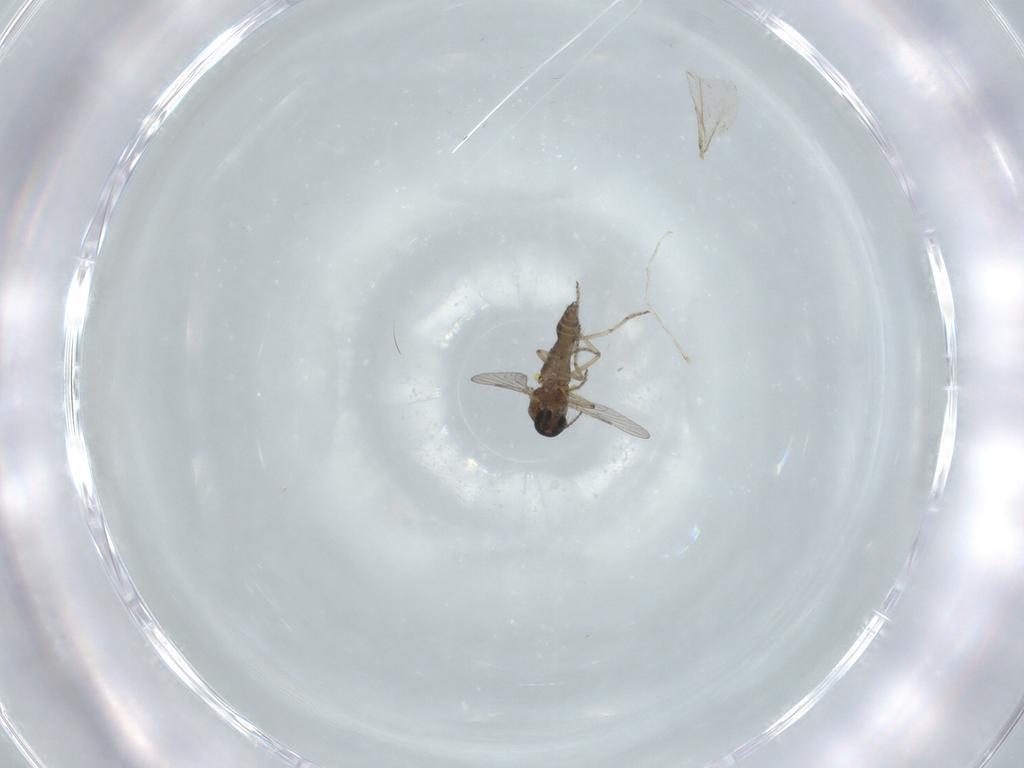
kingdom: Animalia
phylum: Arthropoda
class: Insecta
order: Diptera
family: Ceratopogonidae
